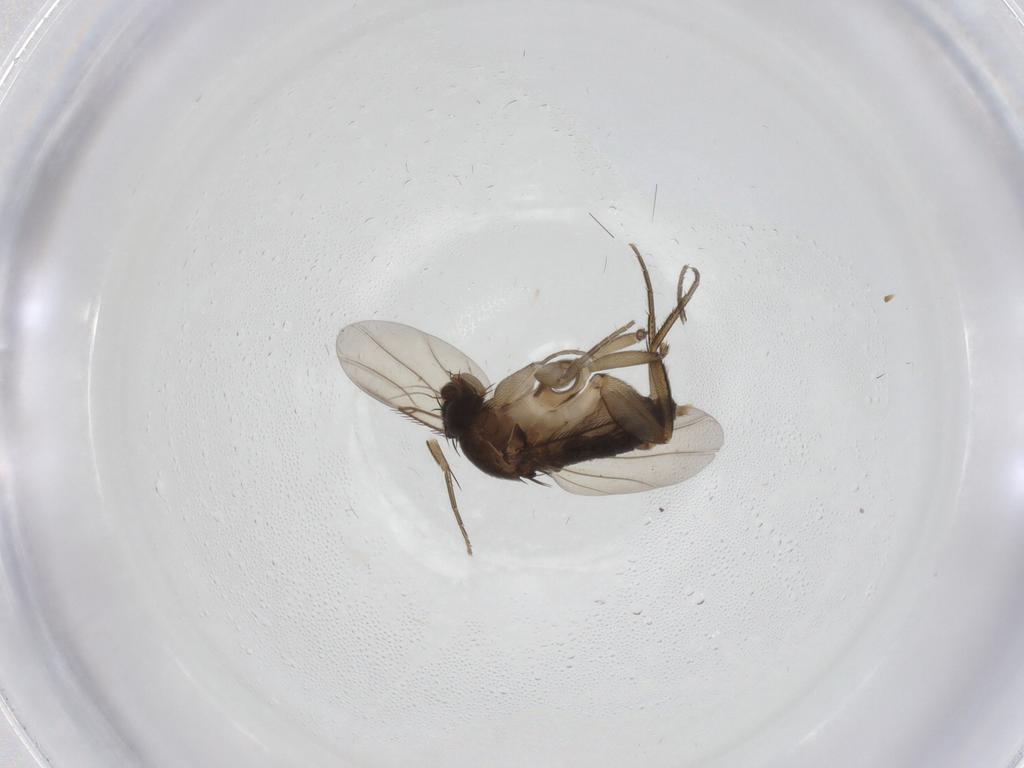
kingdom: Animalia
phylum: Arthropoda
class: Insecta
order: Diptera
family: Phoridae
